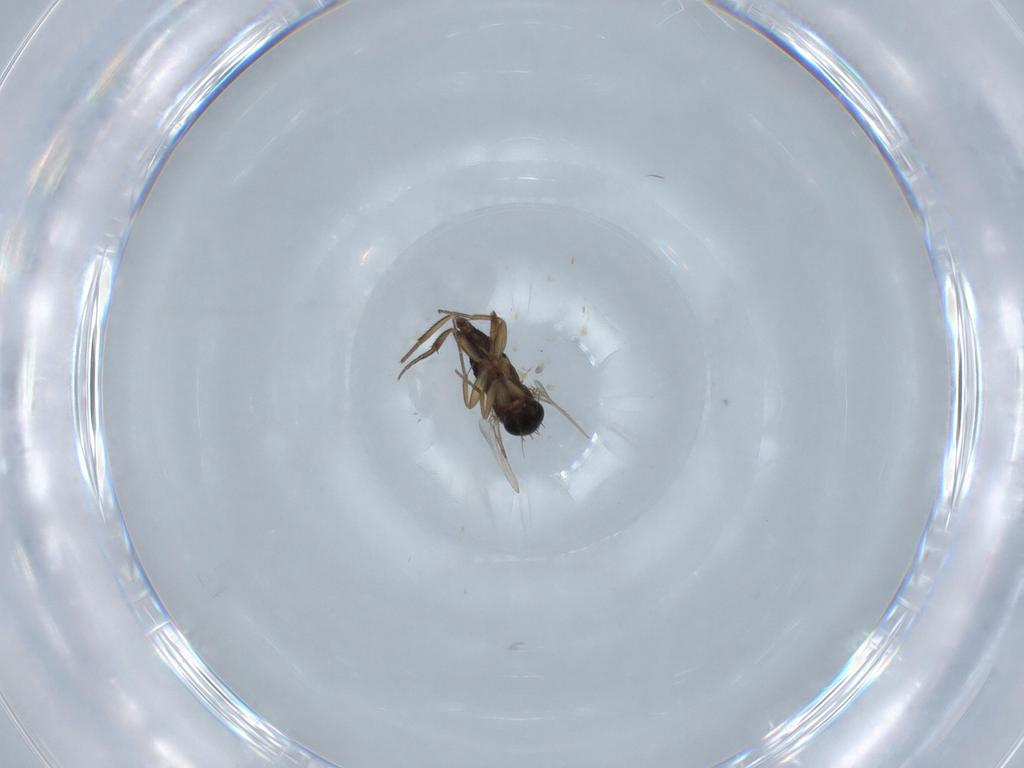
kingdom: Animalia
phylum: Arthropoda
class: Insecta
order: Diptera
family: Phoridae
